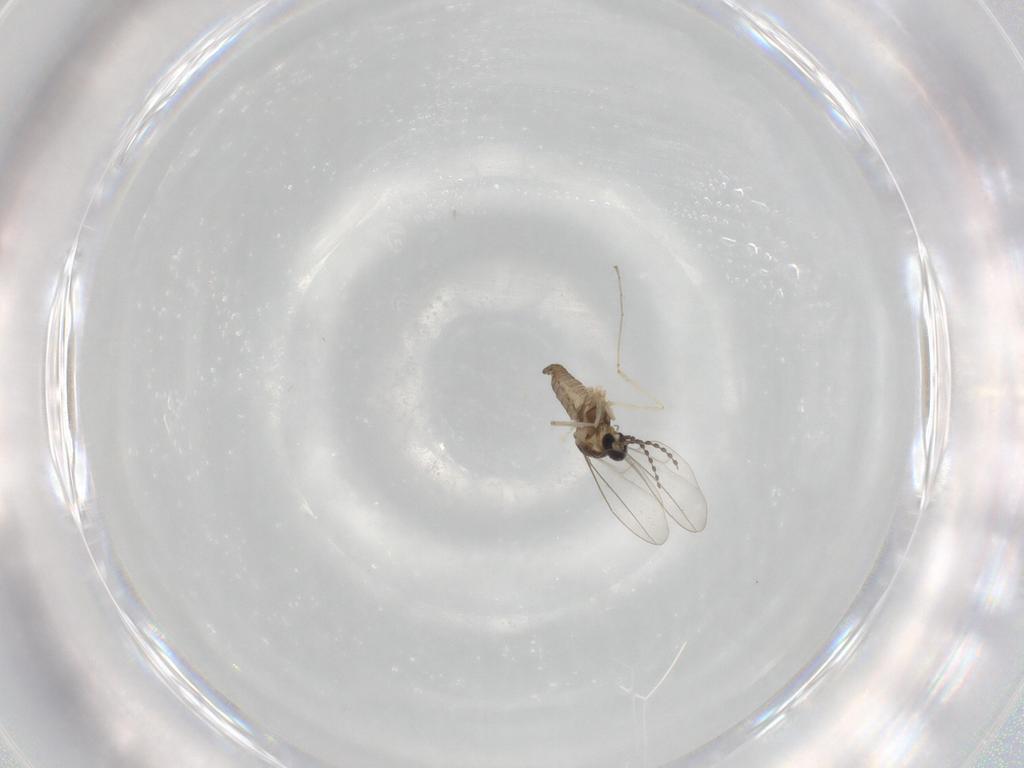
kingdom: Animalia
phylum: Arthropoda
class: Insecta
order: Diptera
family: Cecidomyiidae
